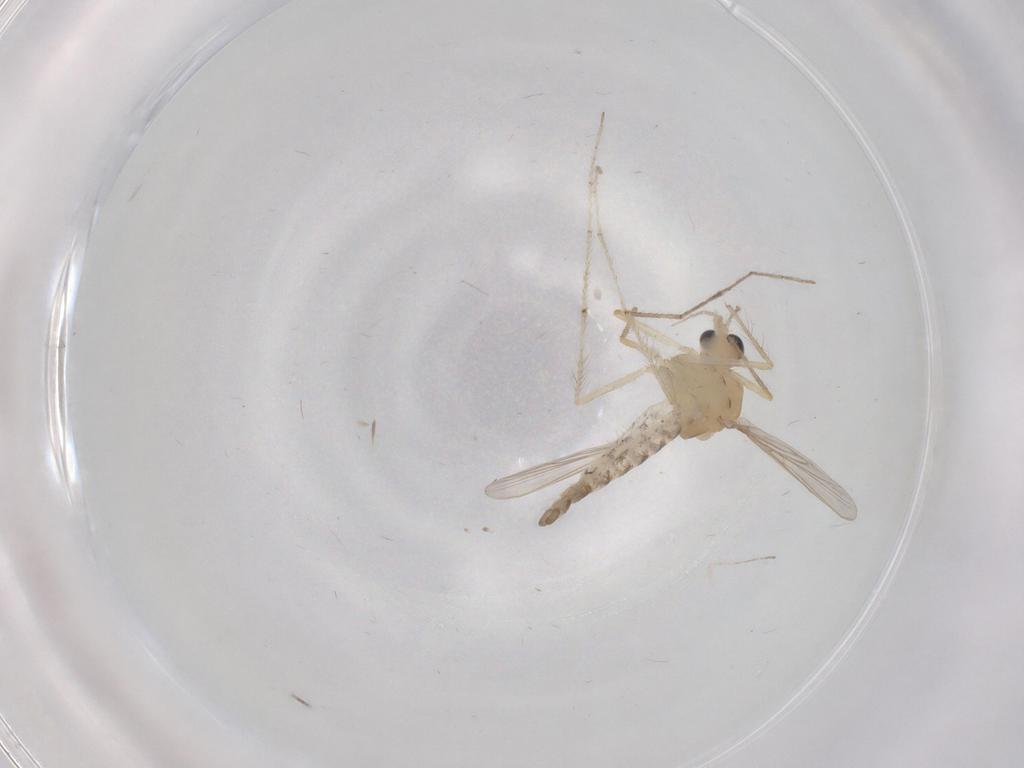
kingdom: Animalia
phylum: Arthropoda
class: Insecta
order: Diptera
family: Chironomidae
